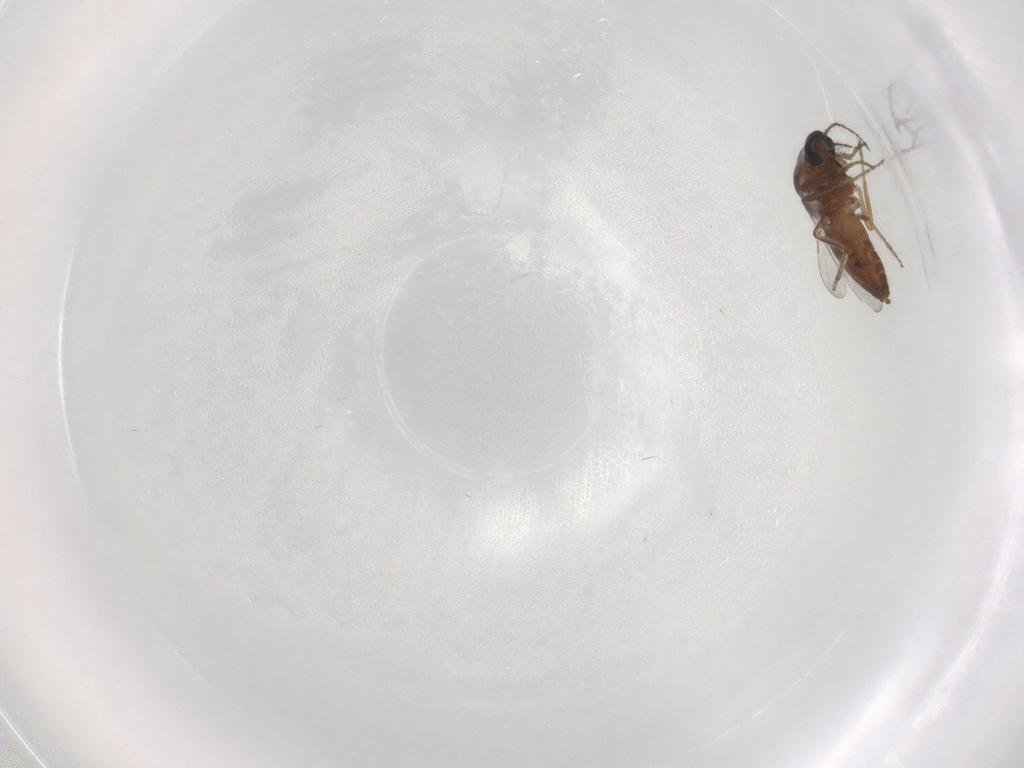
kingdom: Animalia
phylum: Arthropoda
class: Insecta
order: Diptera
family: Ceratopogonidae
